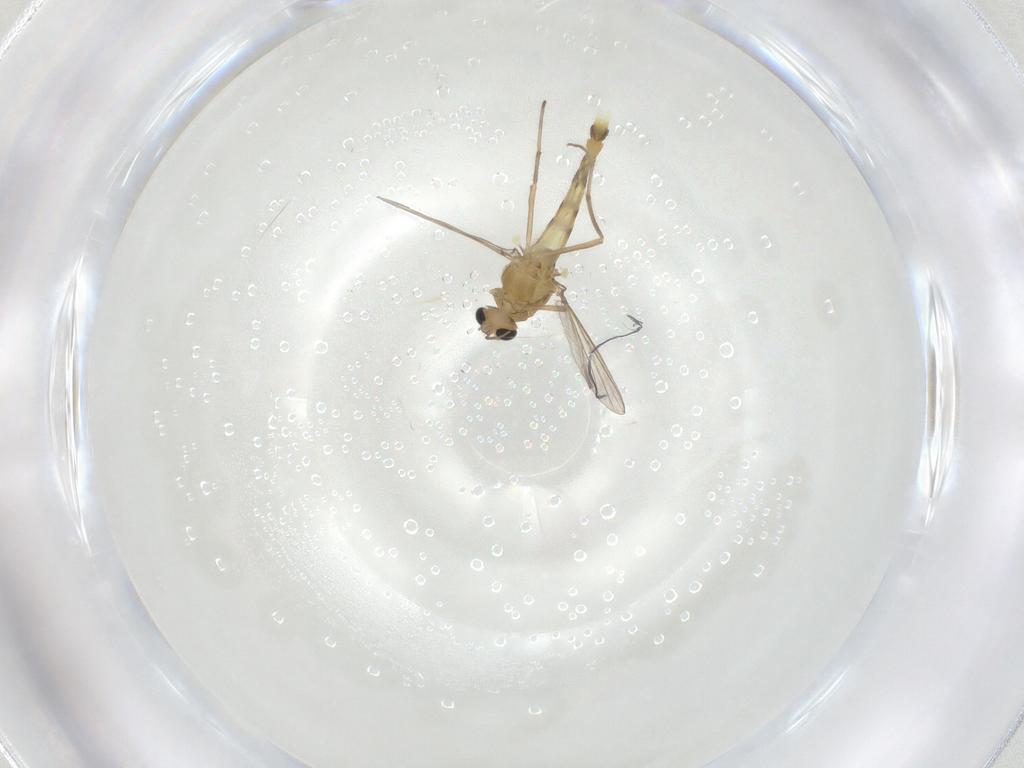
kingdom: Animalia
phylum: Arthropoda
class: Insecta
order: Diptera
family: Chironomidae
